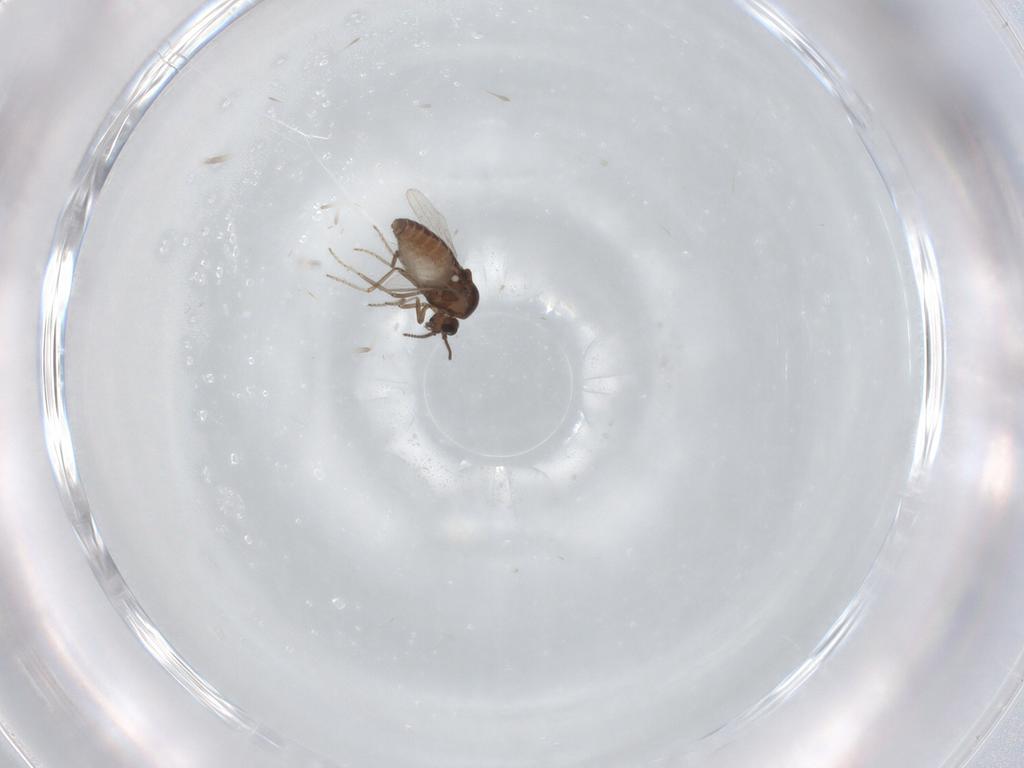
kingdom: Animalia
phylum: Arthropoda
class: Insecta
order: Diptera
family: Ceratopogonidae
